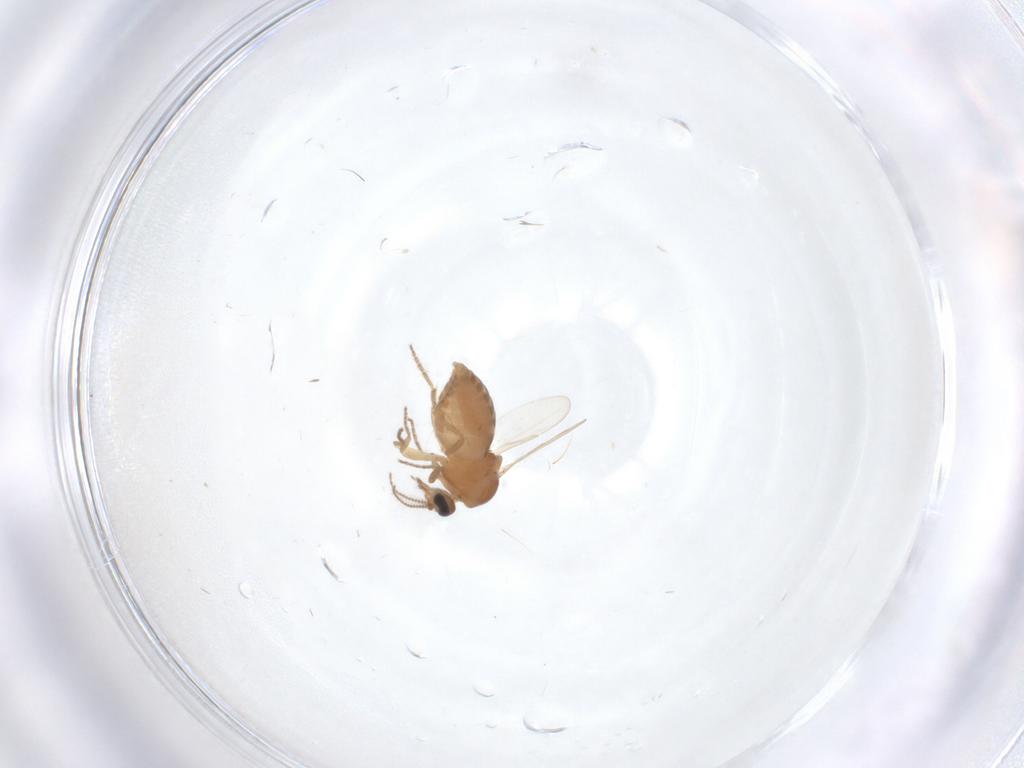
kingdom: Animalia
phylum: Arthropoda
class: Insecta
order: Diptera
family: Ceratopogonidae
